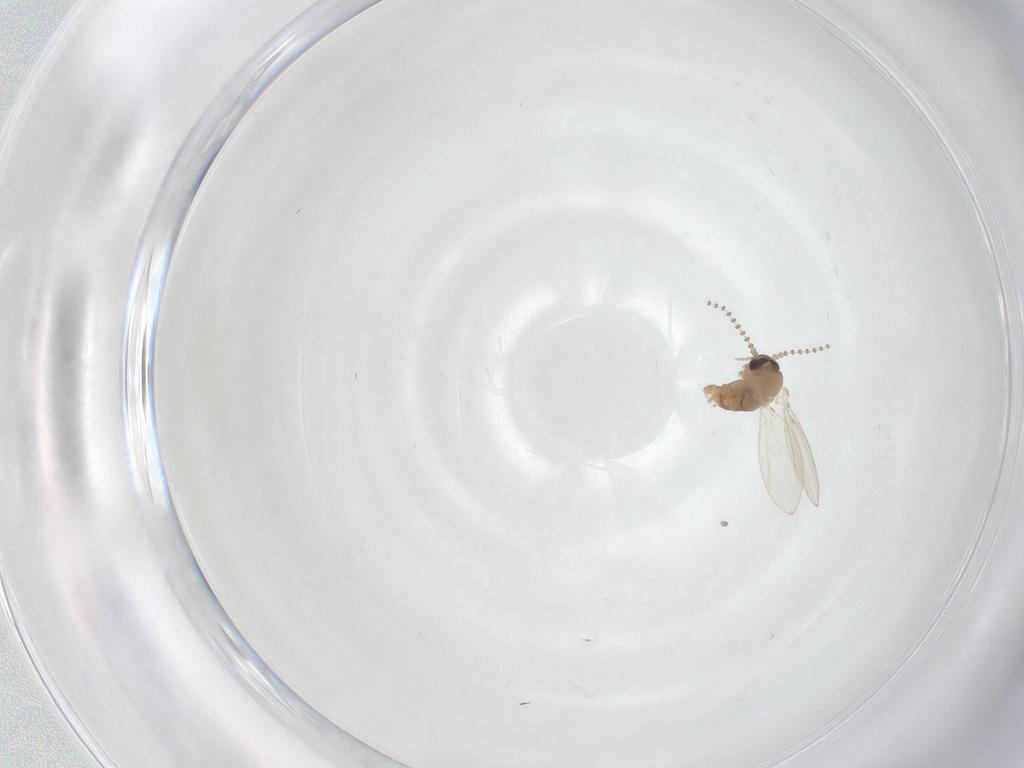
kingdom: Animalia
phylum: Arthropoda
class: Insecta
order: Diptera
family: Psychodidae
